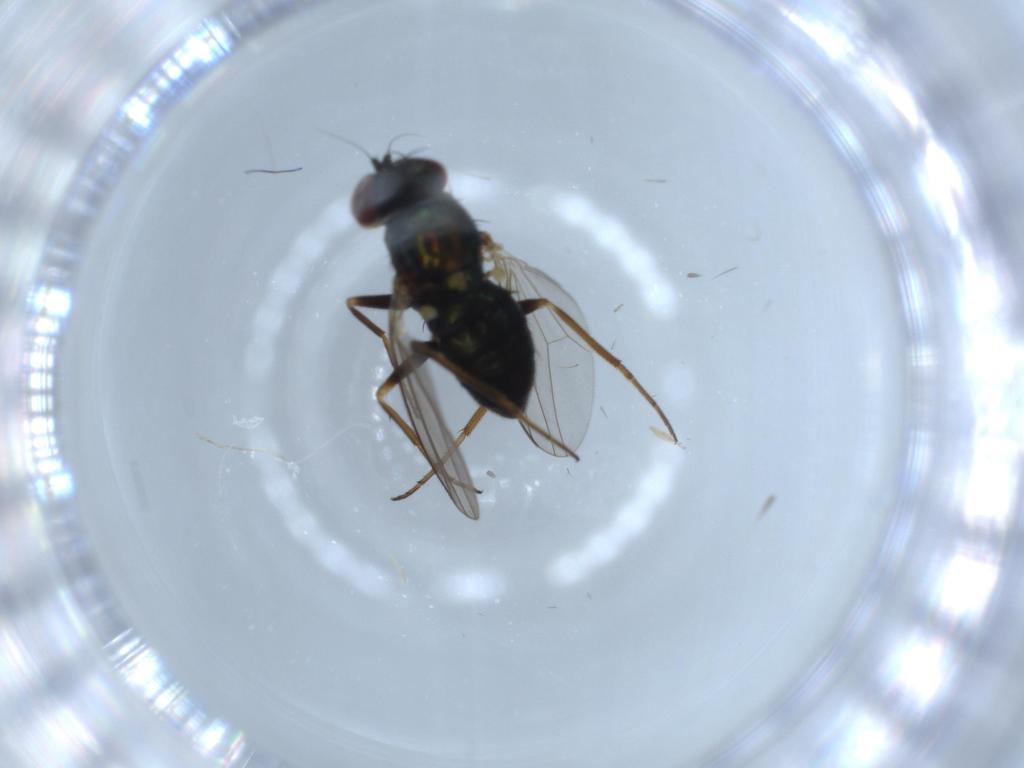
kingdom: Animalia
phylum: Arthropoda
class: Insecta
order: Diptera
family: Dolichopodidae
